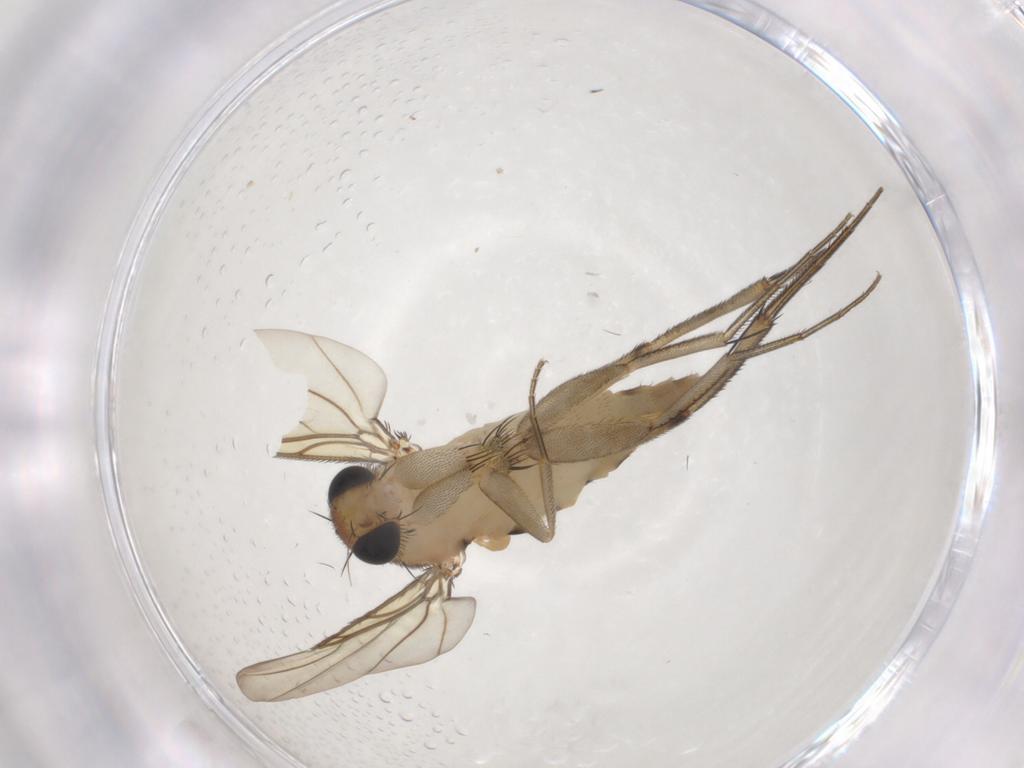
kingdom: Animalia
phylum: Arthropoda
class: Insecta
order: Diptera
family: Phoridae
